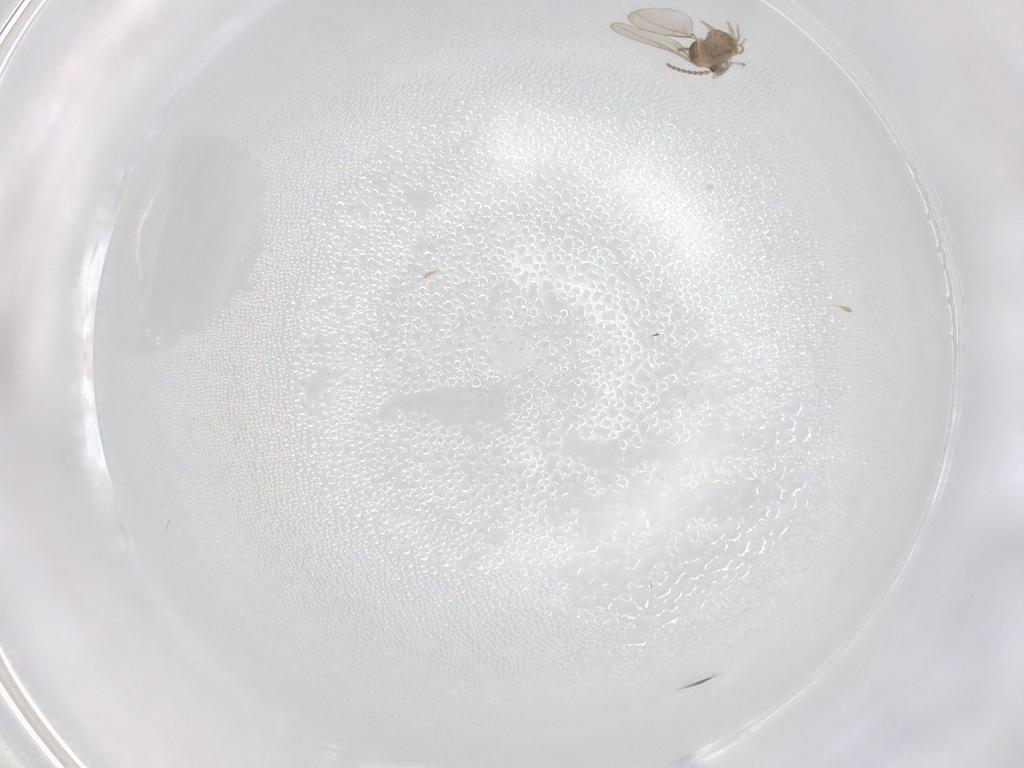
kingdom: Animalia
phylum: Arthropoda
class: Insecta
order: Diptera
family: Cecidomyiidae
